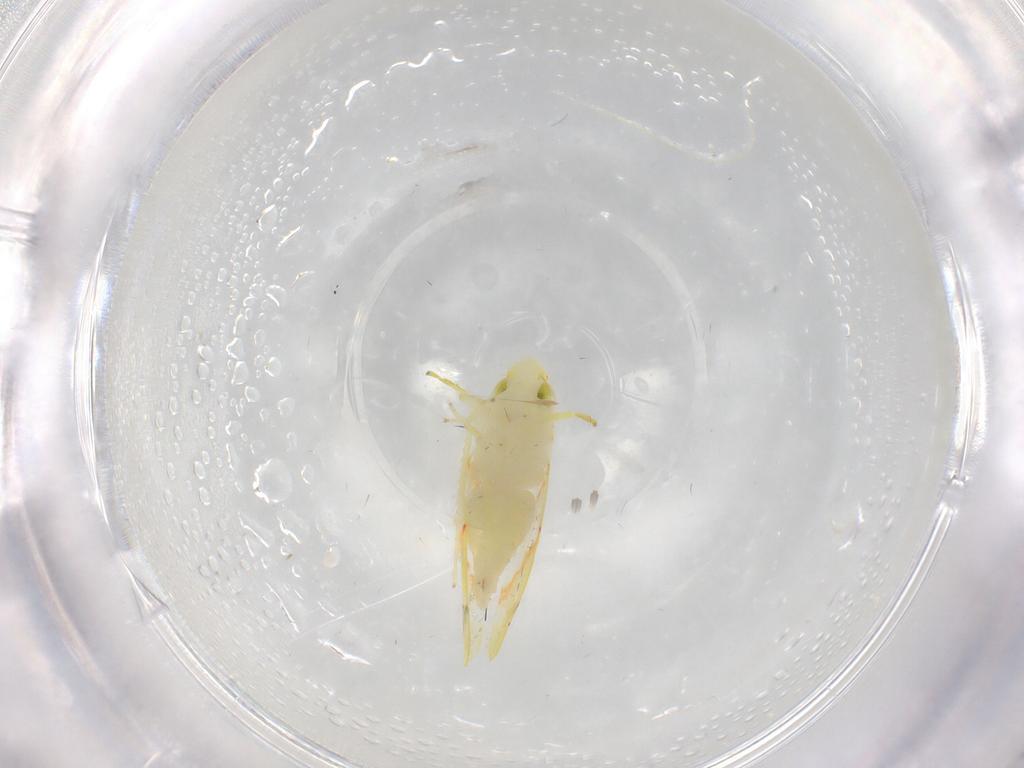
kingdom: Animalia
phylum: Arthropoda
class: Insecta
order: Hemiptera
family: Cicadellidae
